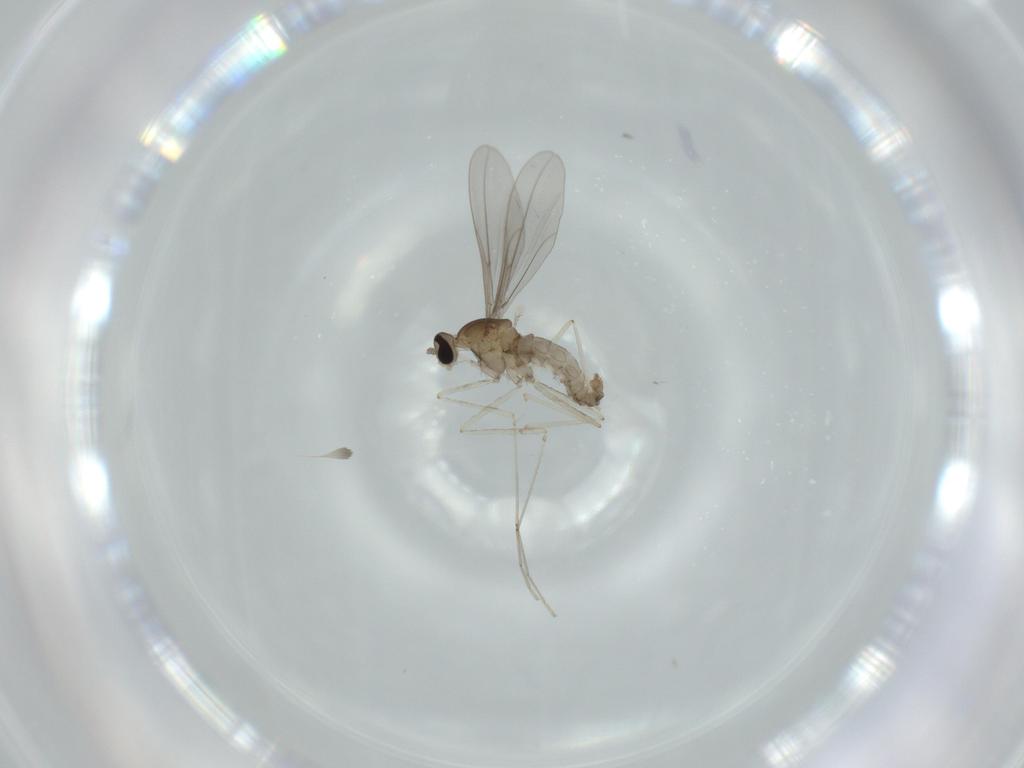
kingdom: Animalia
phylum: Arthropoda
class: Insecta
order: Diptera
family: Cecidomyiidae
